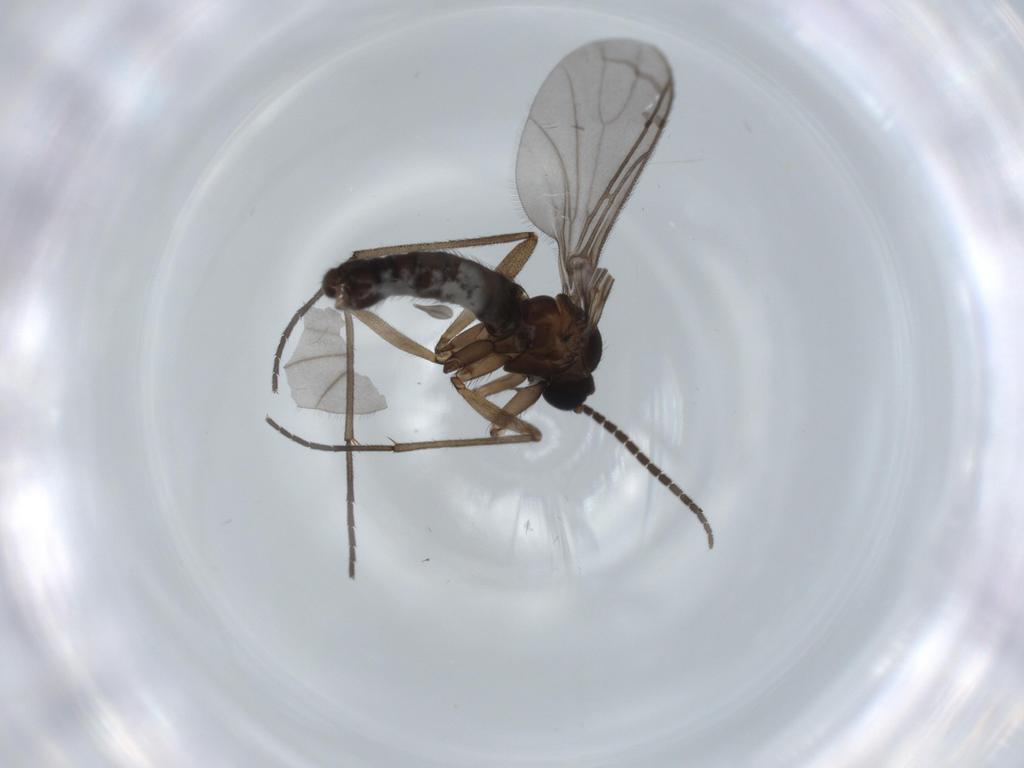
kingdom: Animalia
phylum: Arthropoda
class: Insecta
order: Diptera
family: Sciaridae
